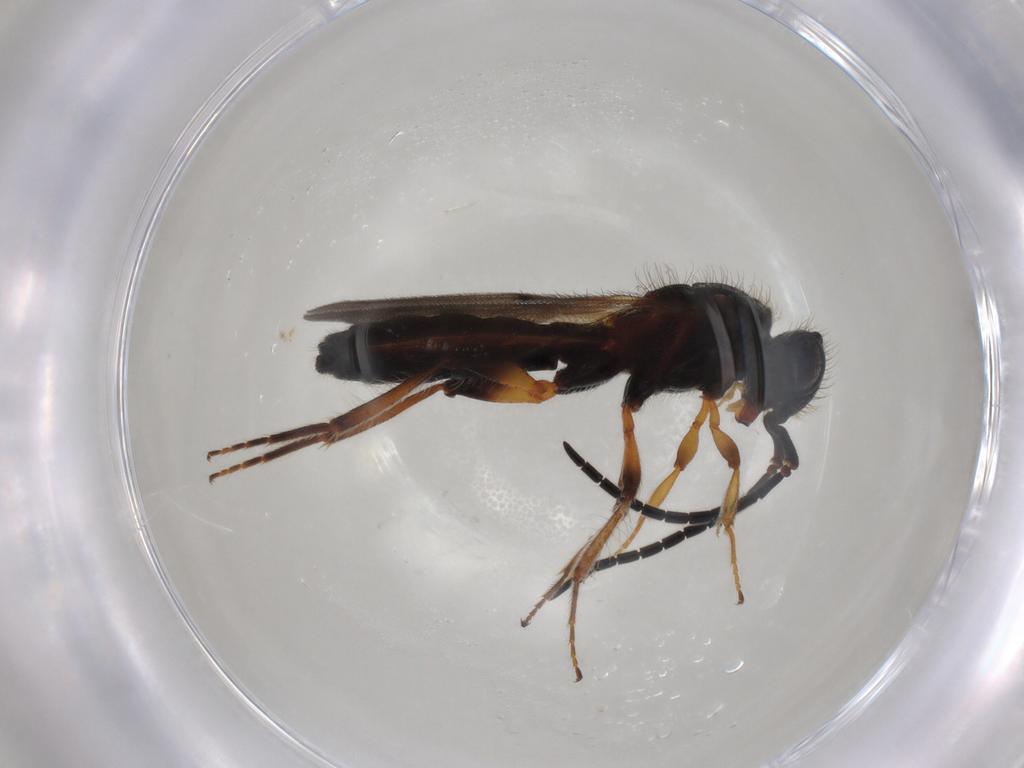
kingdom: Animalia
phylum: Arthropoda
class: Insecta
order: Hymenoptera
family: Scelionidae
